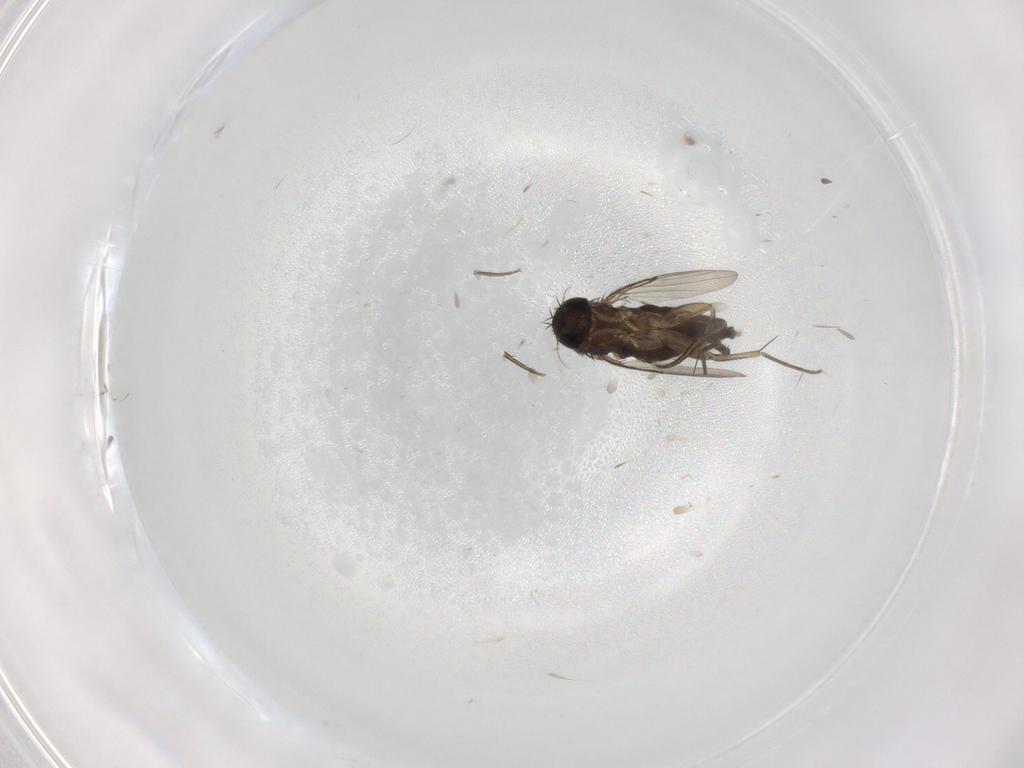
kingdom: Animalia
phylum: Arthropoda
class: Insecta
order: Diptera
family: Phoridae
